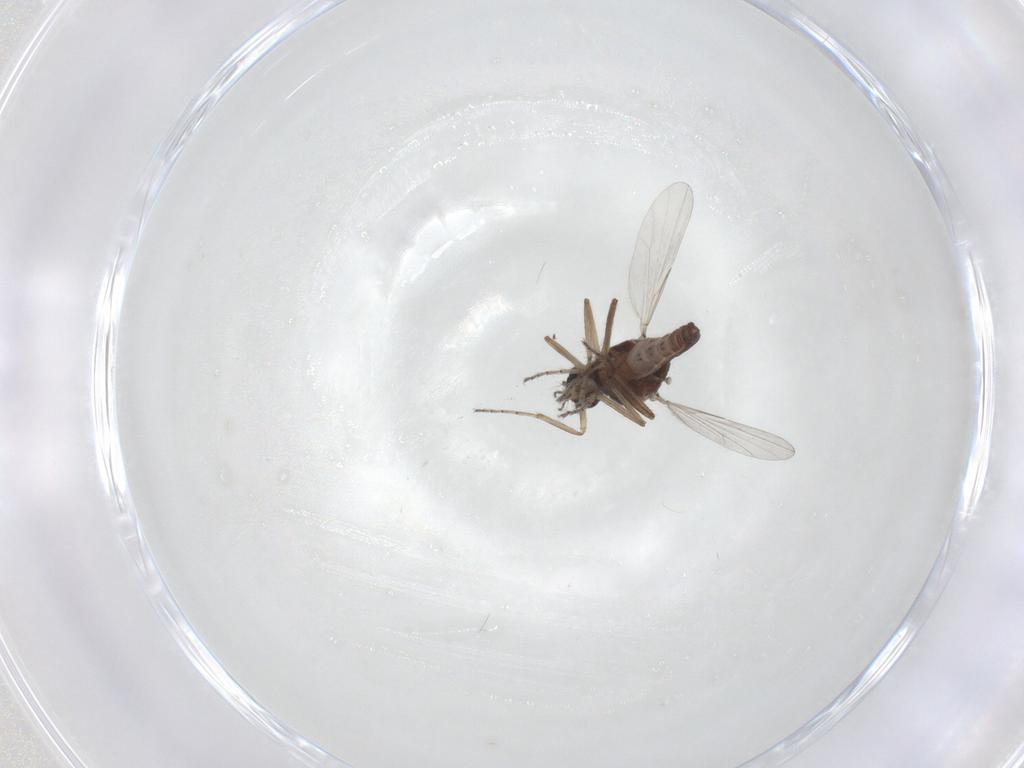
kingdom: Animalia
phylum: Arthropoda
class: Insecta
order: Diptera
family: Ceratopogonidae
